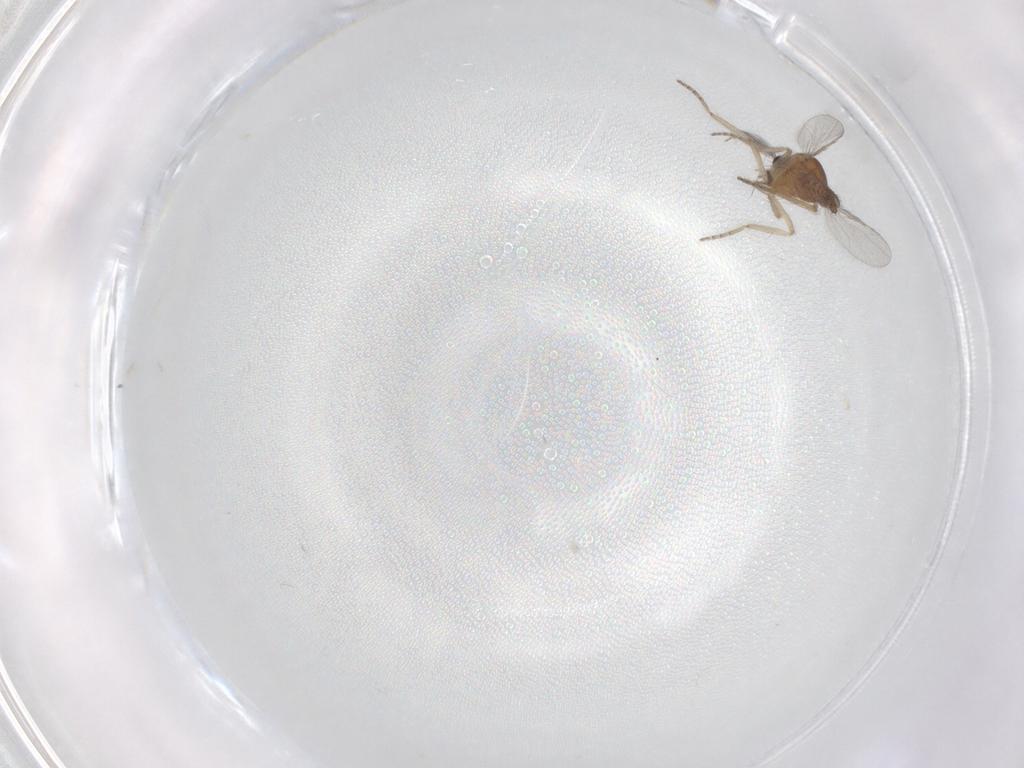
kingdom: Animalia
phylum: Arthropoda
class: Insecta
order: Diptera
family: Ceratopogonidae
